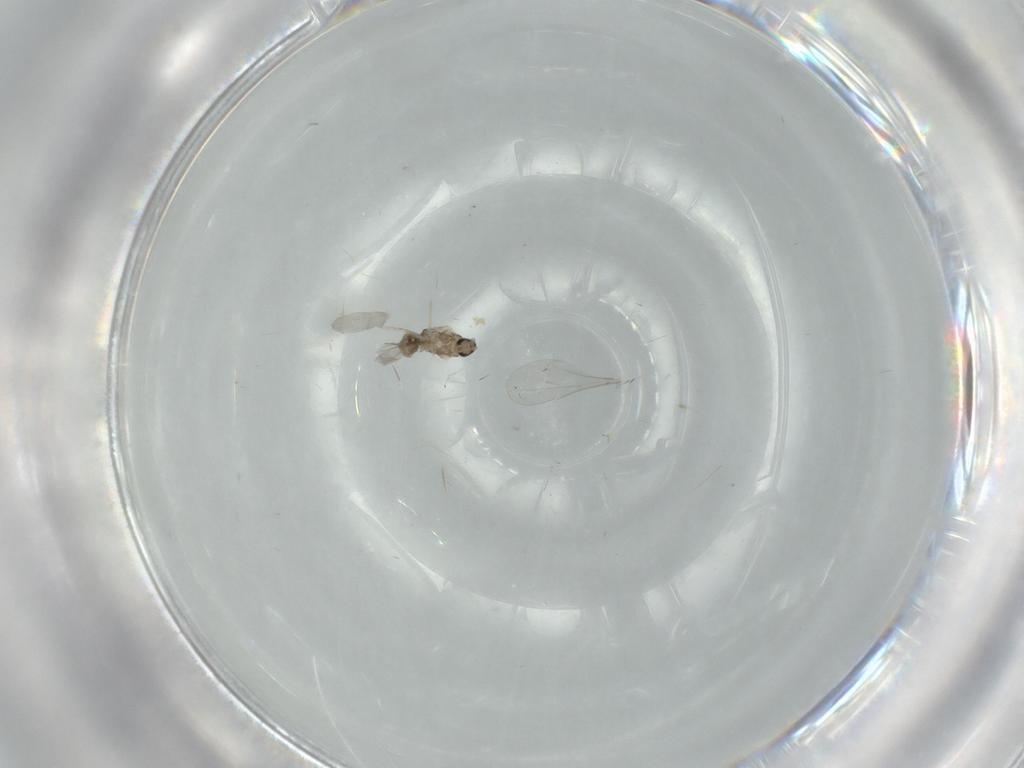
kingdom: Animalia
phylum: Arthropoda
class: Insecta
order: Diptera
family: Cecidomyiidae
